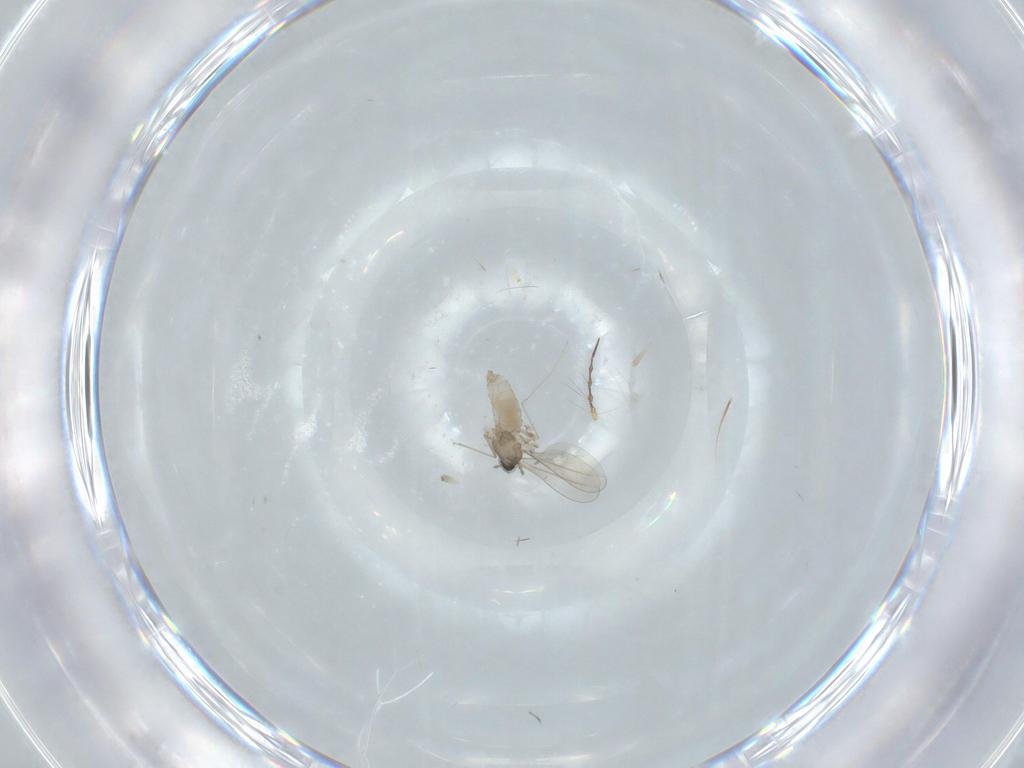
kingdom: Animalia
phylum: Arthropoda
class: Insecta
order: Diptera
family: Cecidomyiidae
